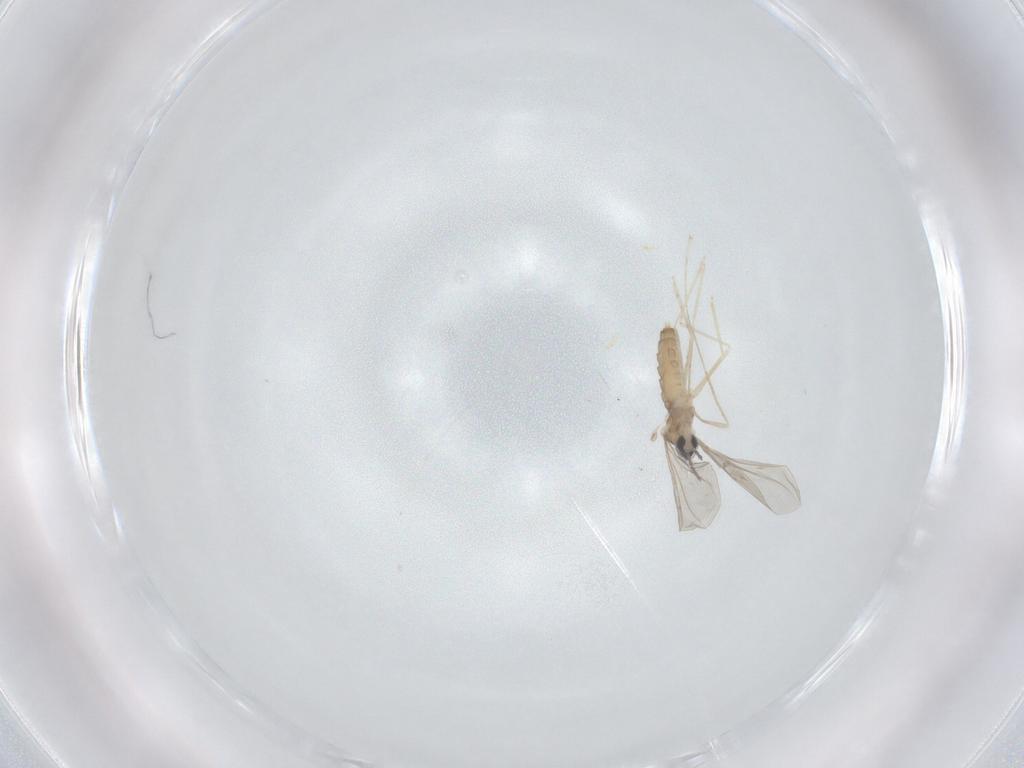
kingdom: Animalia
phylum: Arthropoda
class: Insecta
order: Diptera
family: Cecidomyiidae
